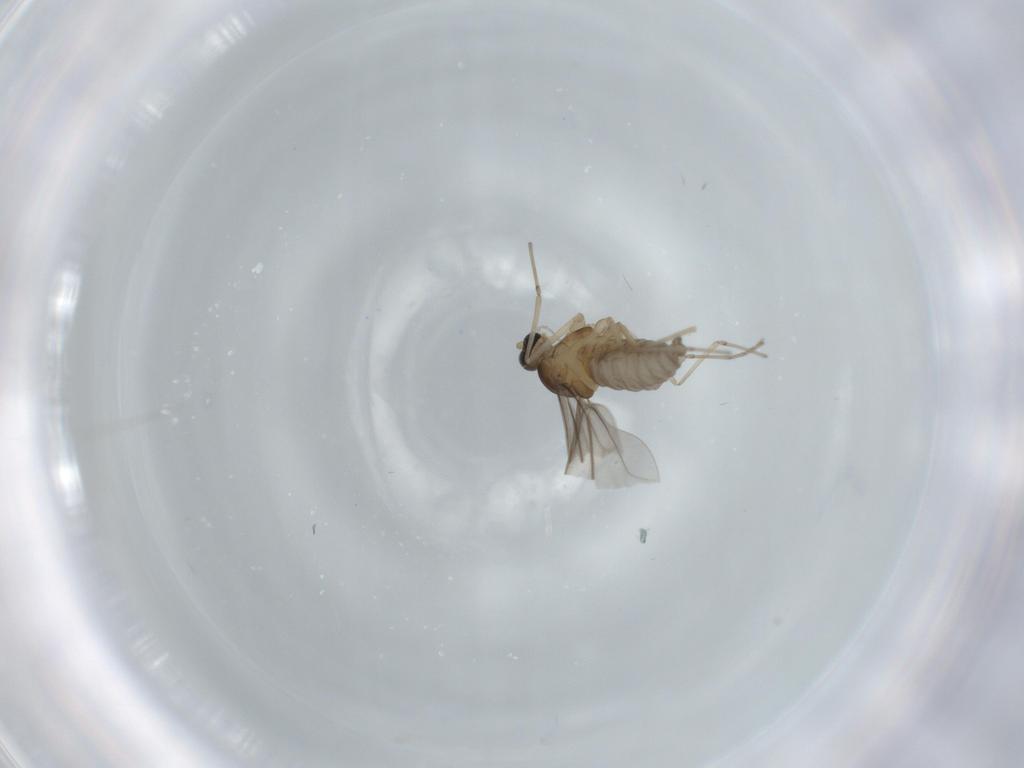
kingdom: Animalia
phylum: Arthropoda
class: Insecta
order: Diptera
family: Cecidomyiidae
